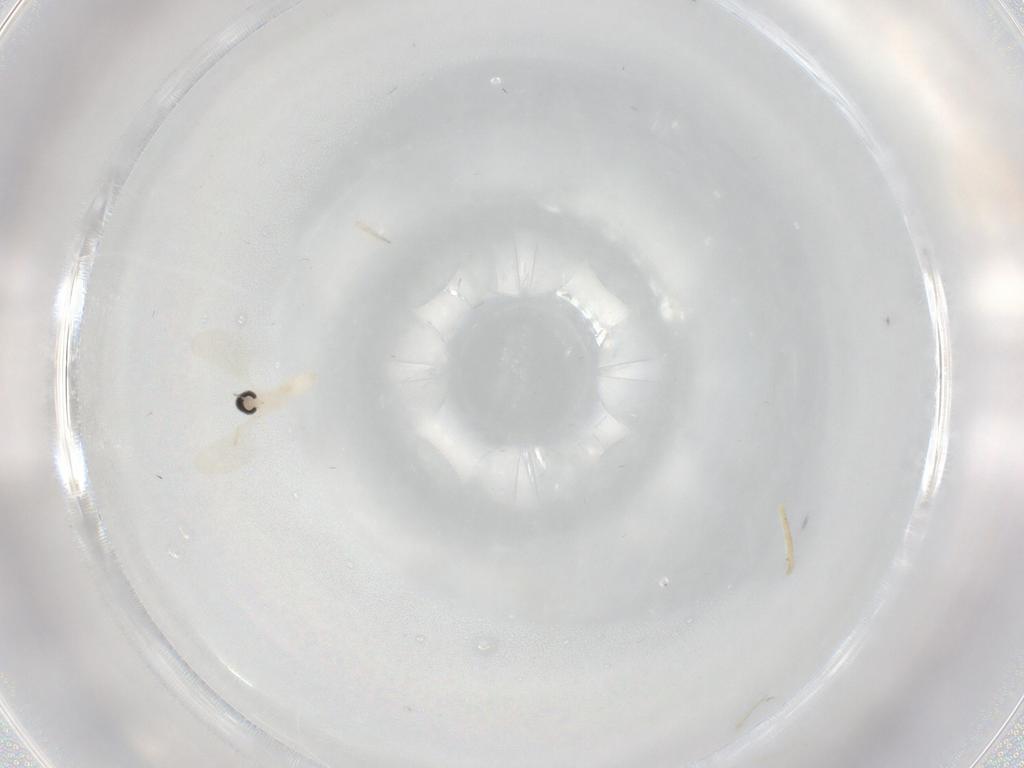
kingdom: Animalia
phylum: Arthropoda
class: Insecta
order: Diptera
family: Cecidomyiidae
